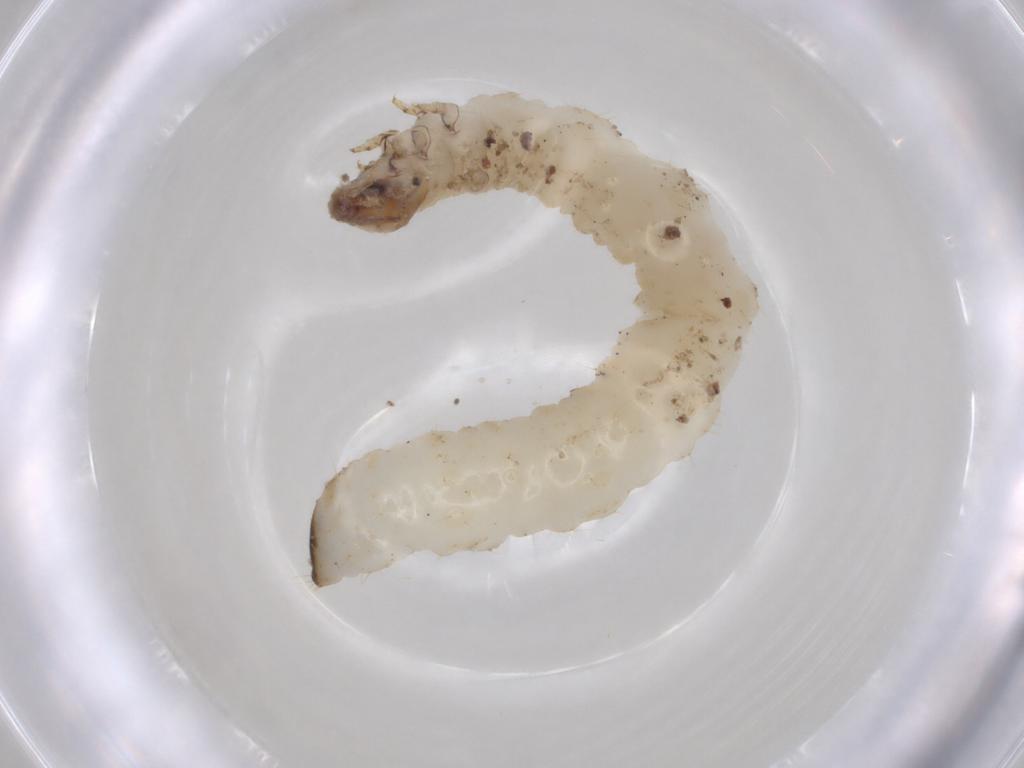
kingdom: Animalia
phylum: Arthropoda
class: Insecta
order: Coleoptera
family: Chrysomelidae
